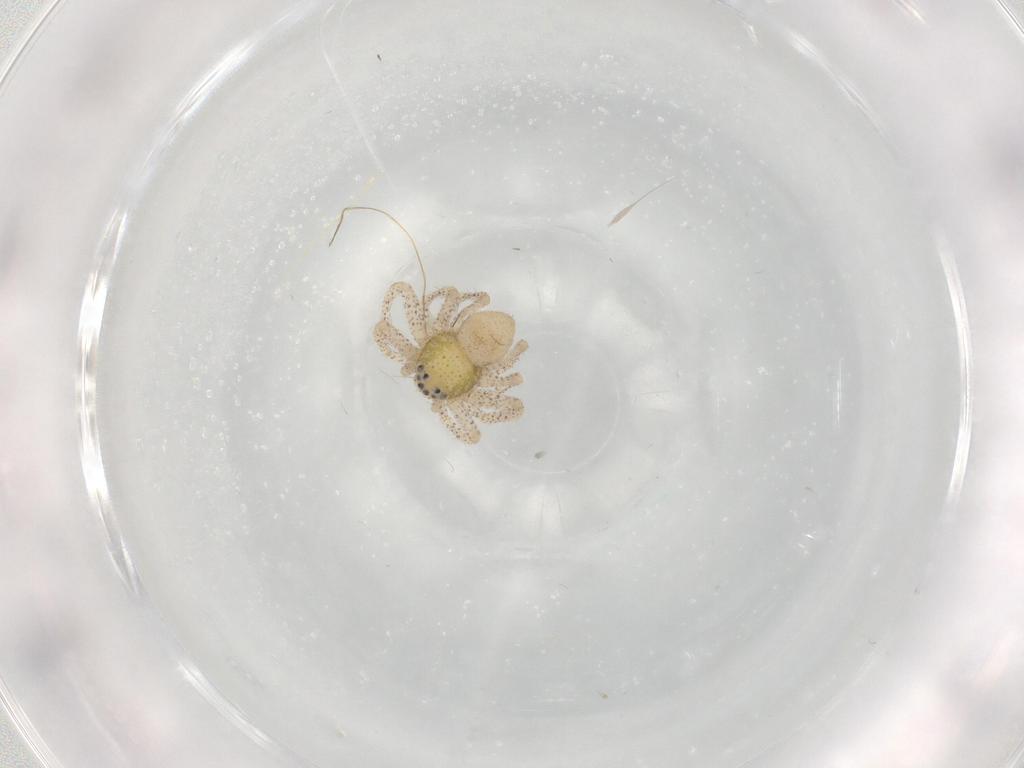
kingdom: Animalia
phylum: Arthropoda
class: Arachnida
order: Araneae
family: Philodromidae
